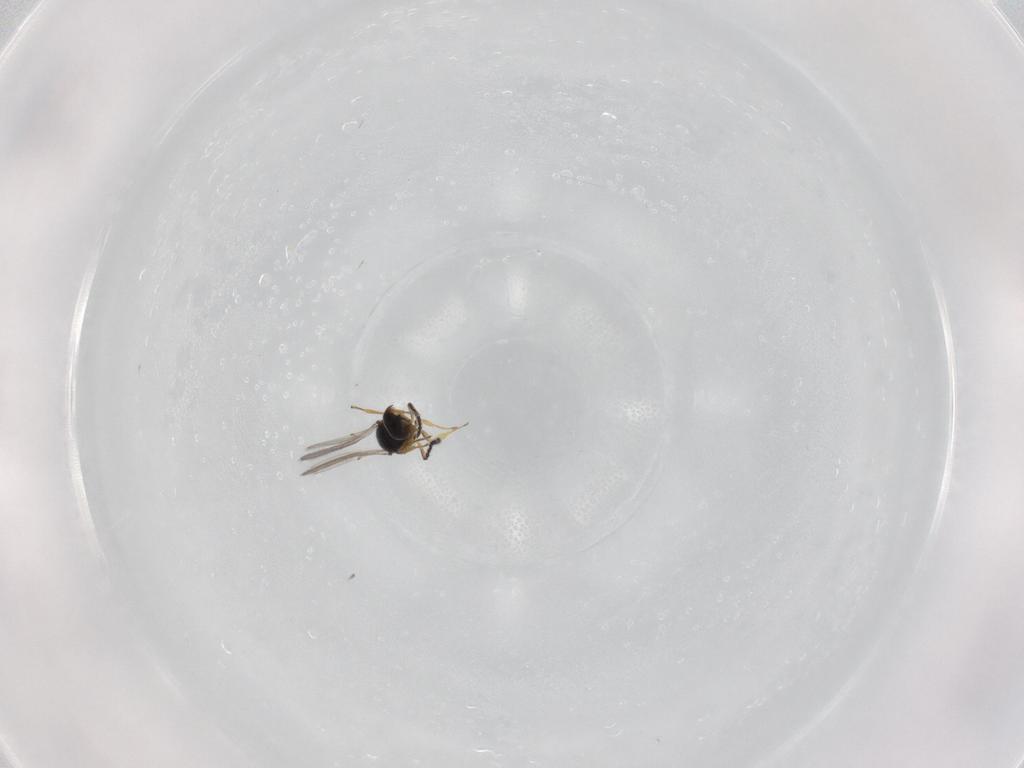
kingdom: Animalia
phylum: Arthropoda
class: Insecta
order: Hymenoptera
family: Scelionidae
